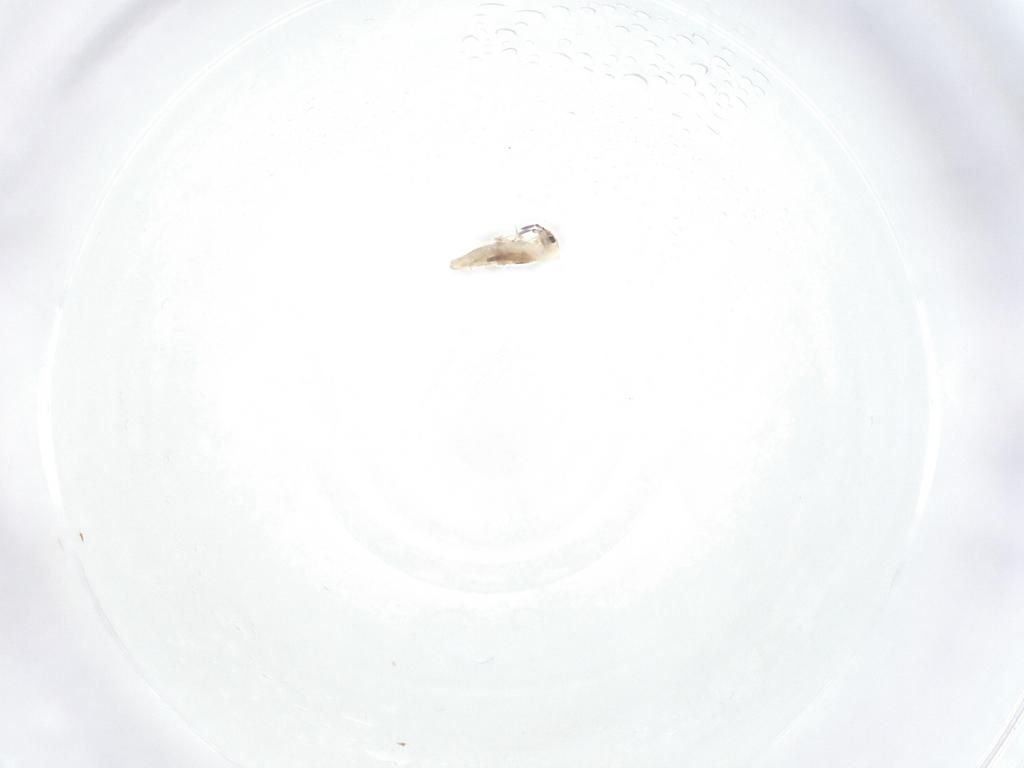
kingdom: Animalia
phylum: Arthropoda
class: Collembola
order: Entomobryomorpha
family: Entomobryidae
